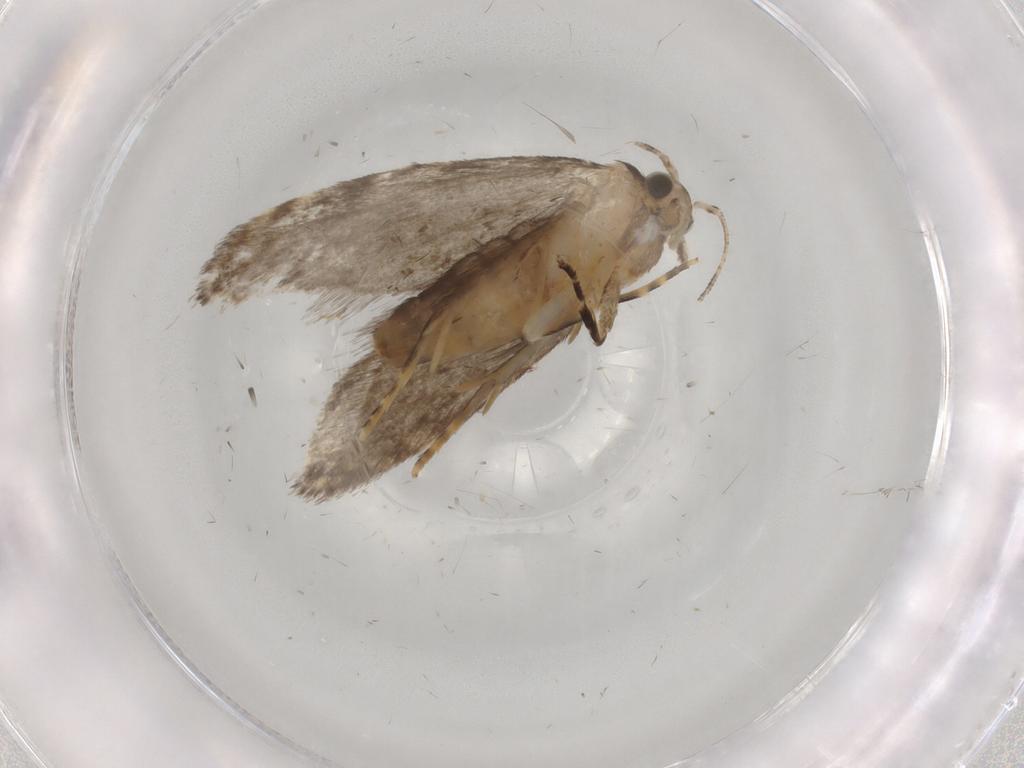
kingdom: Animalia
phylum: Arthropoda
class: Insecta
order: Lepidoptera
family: Tineidae
